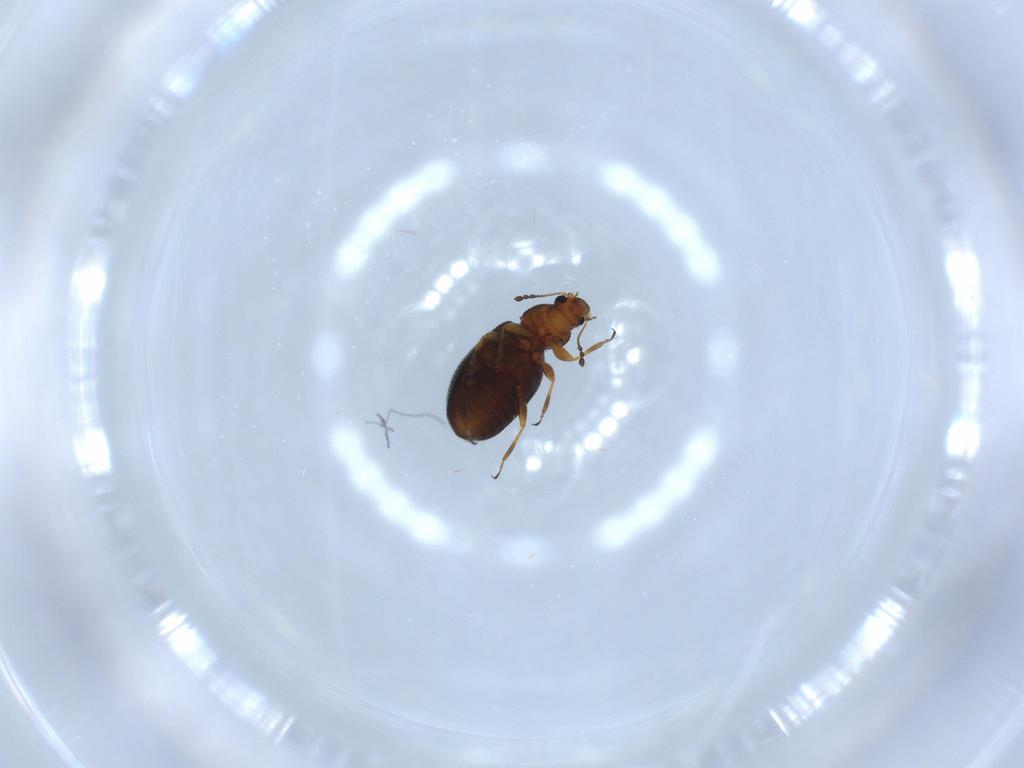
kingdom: Animalia
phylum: Arthropoda
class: Insecta
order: Coleoptera
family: Latridiidae
